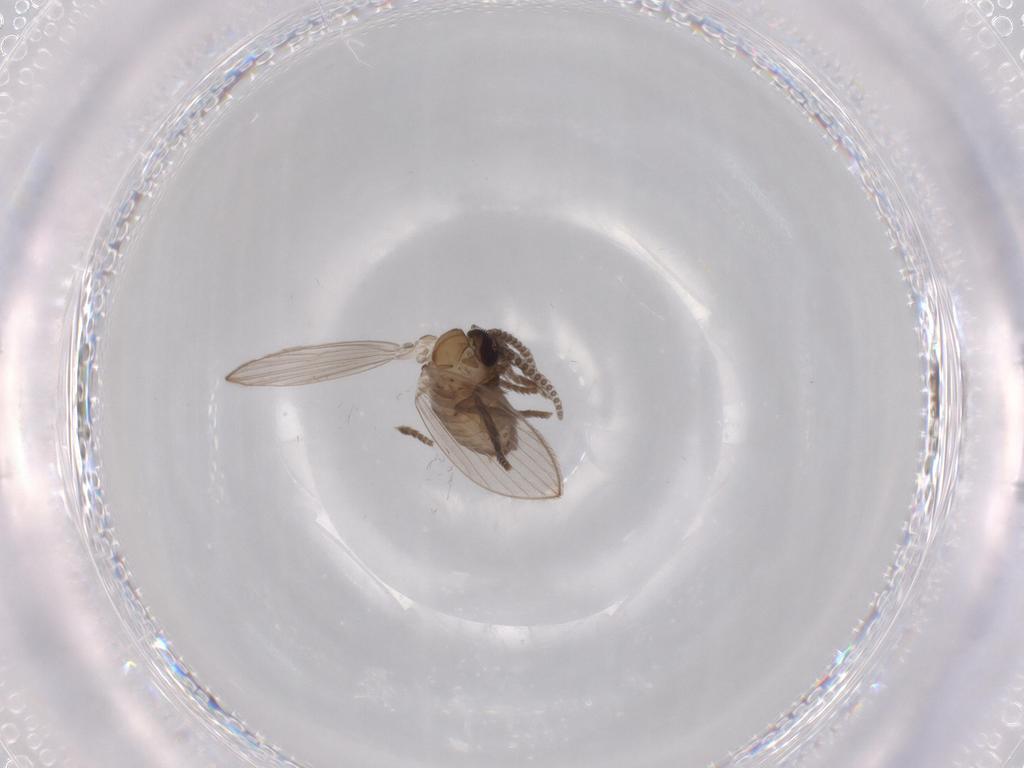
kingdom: Animalia
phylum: Arthropoda
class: Insecta
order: Diptera
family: Psychodidae
